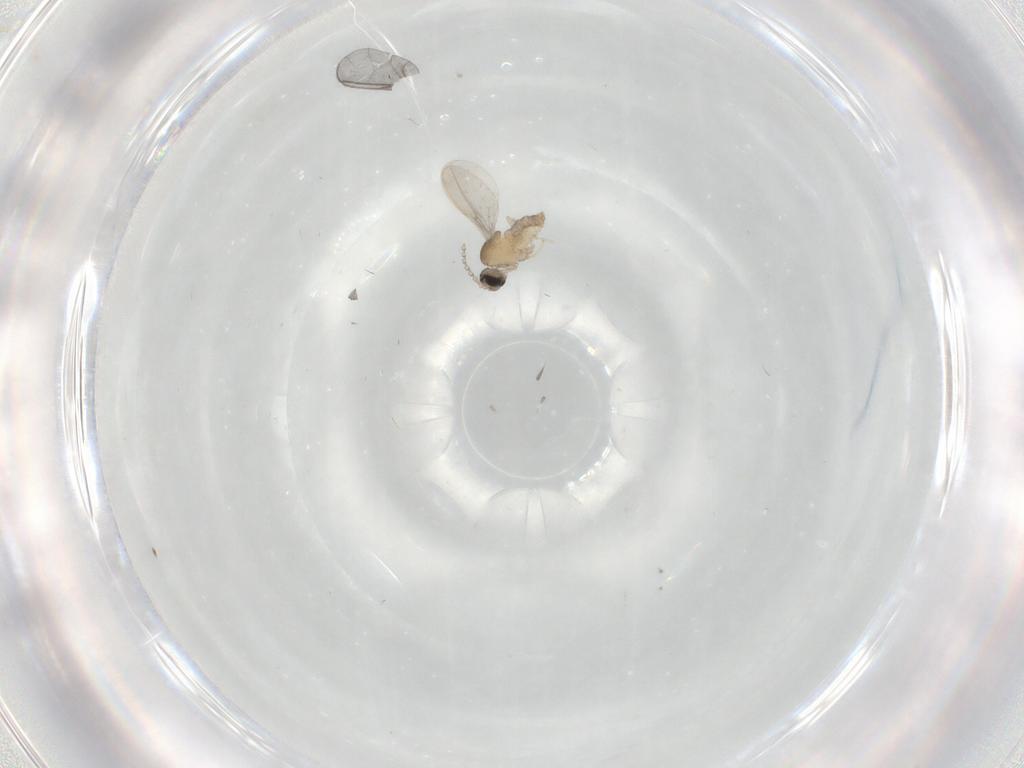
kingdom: Animalia
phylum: Arthropoda
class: Insecta
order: Diptera
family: Cecidomyiidae
